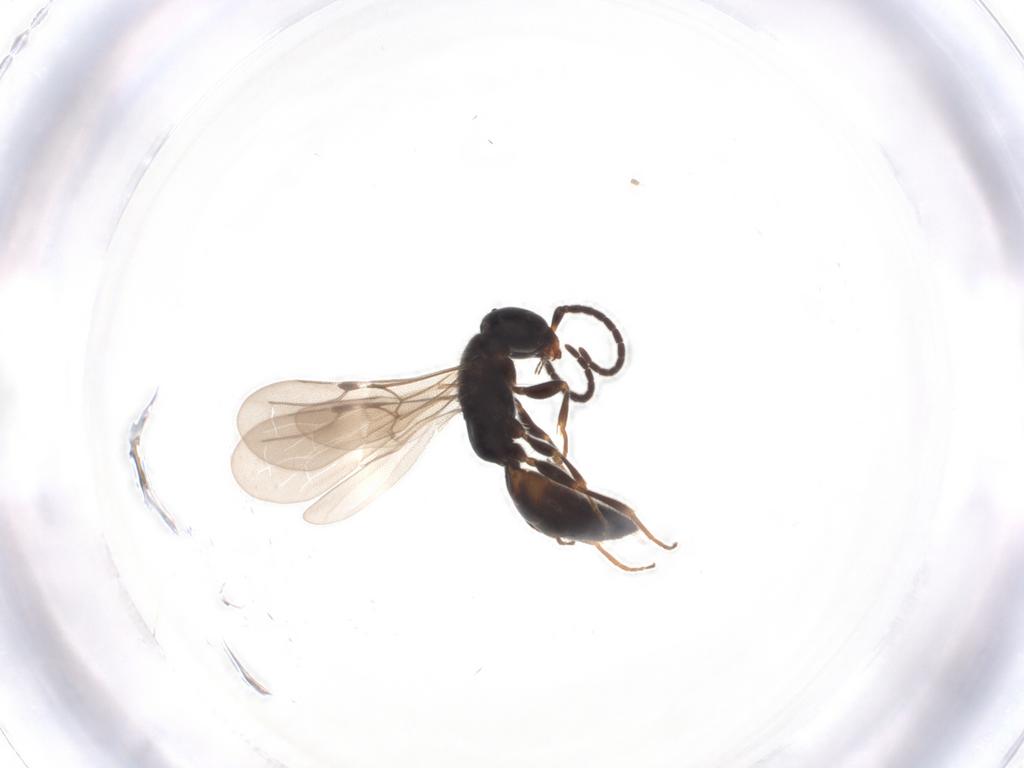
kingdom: Animalia
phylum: Arthropoda
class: Insecta
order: Hymenoptera
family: Bethylidae
